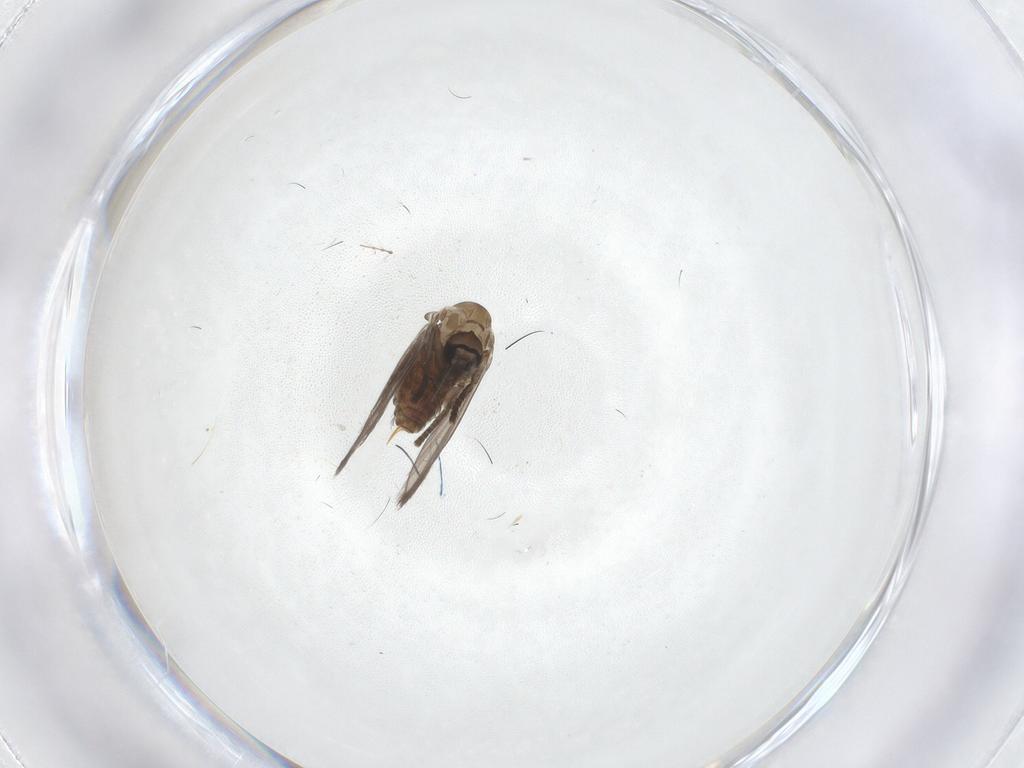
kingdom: Animalia
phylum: Arthropoda
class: Insecta
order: Diptera
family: Psychodidae
